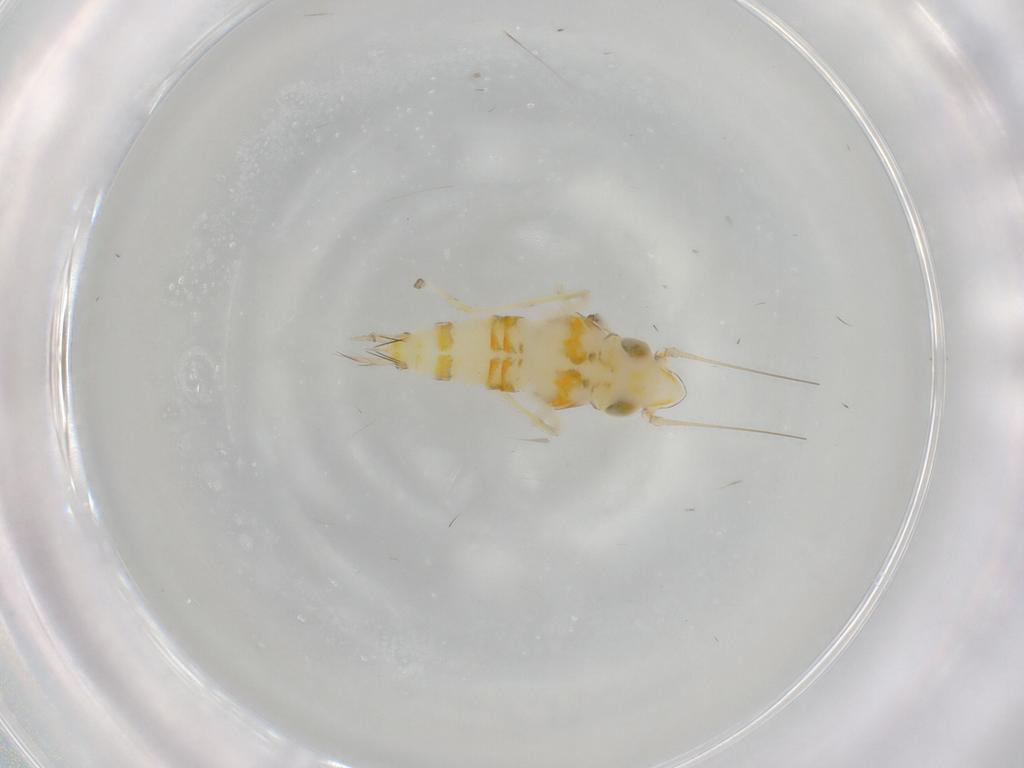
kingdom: Animalia
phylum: Arthropoda
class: Insecta
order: Hemiptera
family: Cicadellidae
